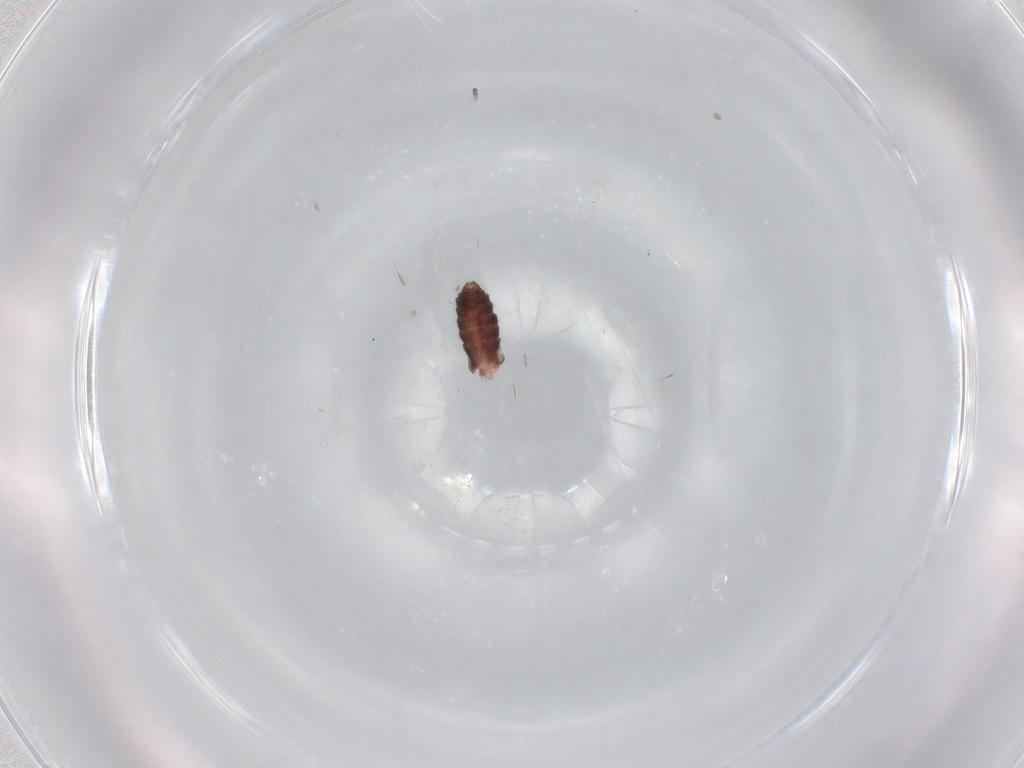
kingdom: Animalia
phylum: Arthropoda
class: Insecta
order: Diptera
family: Ceratopogonidae
